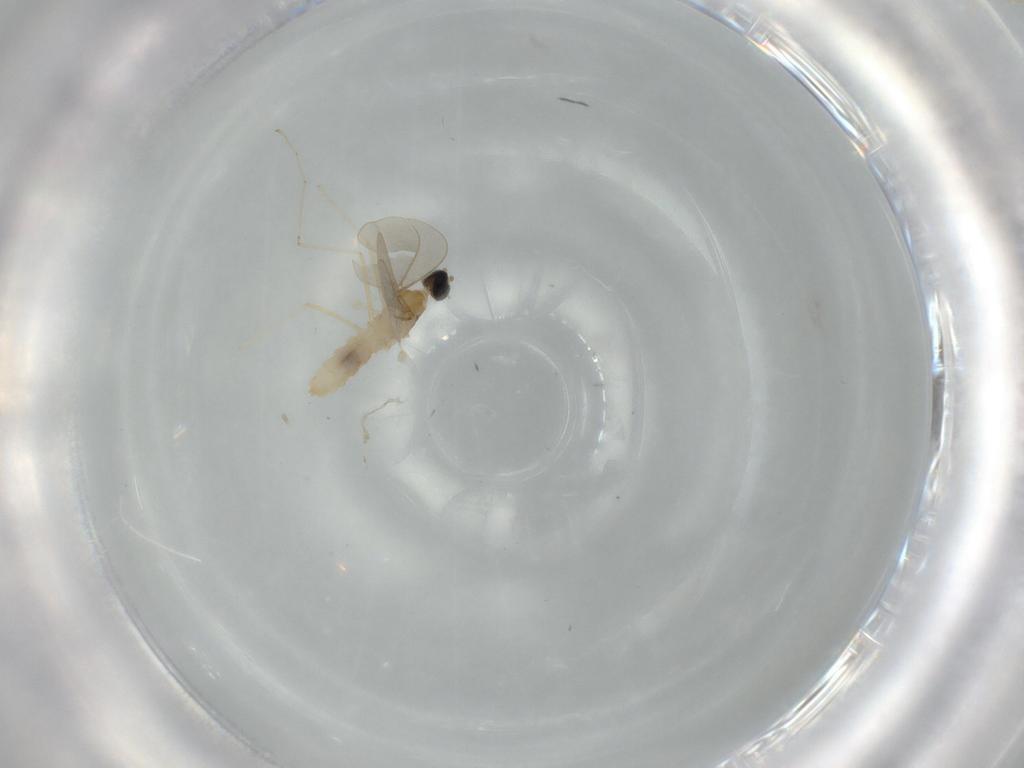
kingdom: Animalia
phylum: Arthropoda
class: Insecta
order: Diptera
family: Cecidomyiidae
